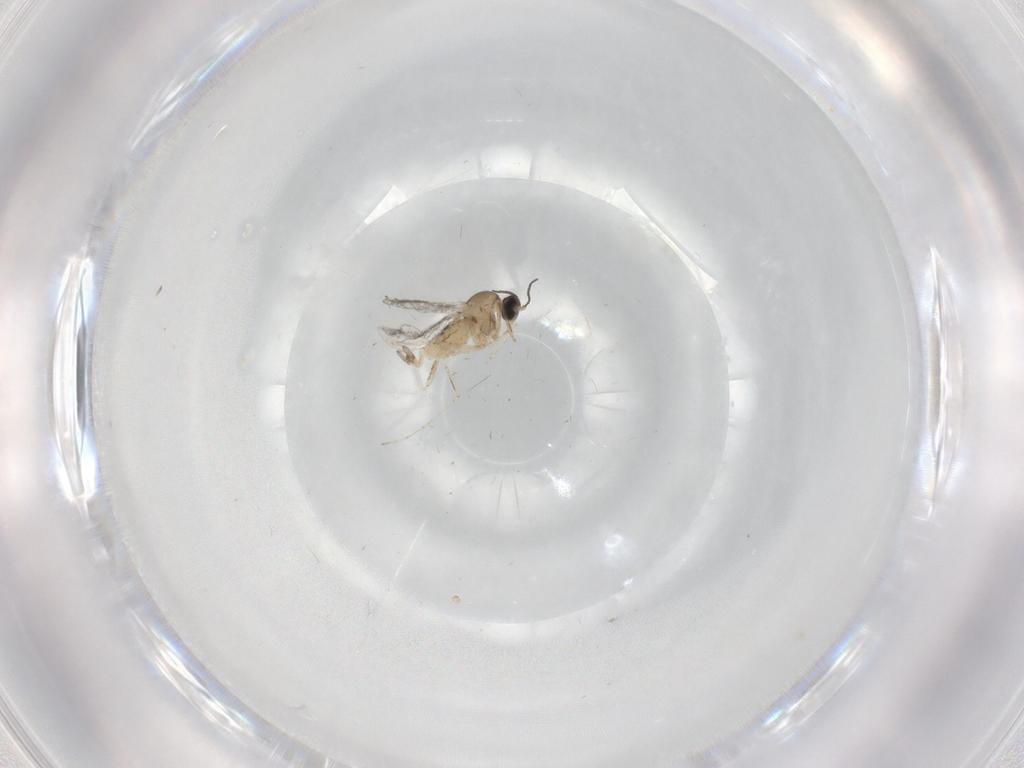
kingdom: Animalia
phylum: Arthropoda
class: Insecta
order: Diptera
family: Cecidomyiidae
